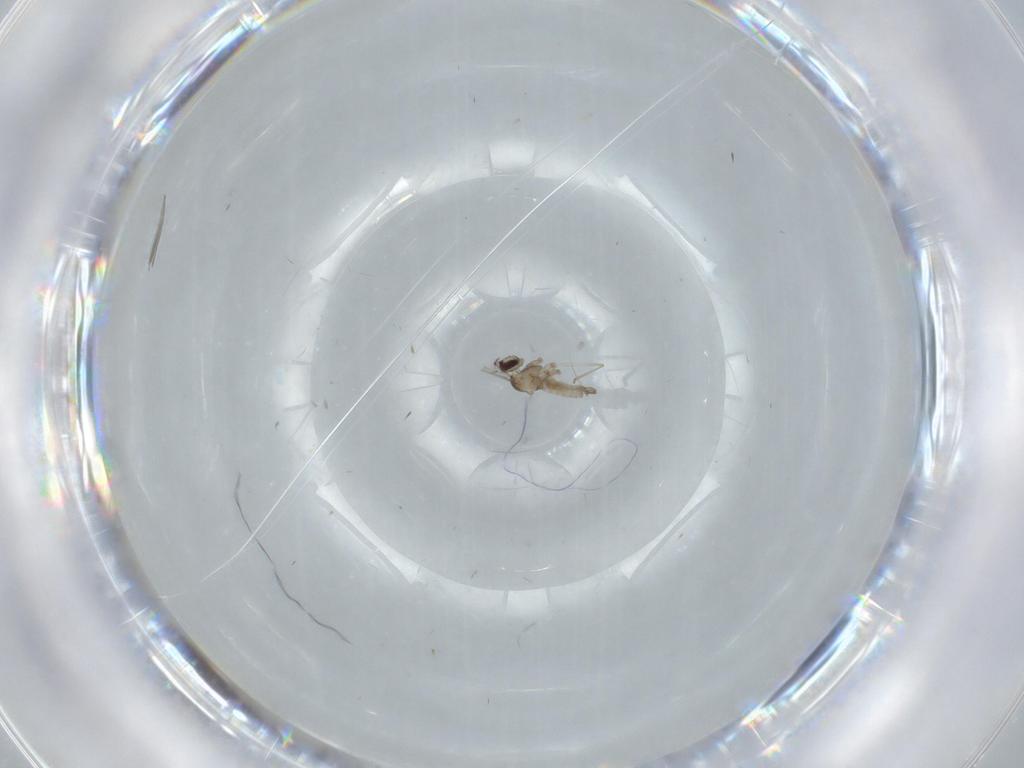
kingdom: Animalia
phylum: Arthropoda
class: Insecta
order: Diptera
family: Cecidomyiidae
